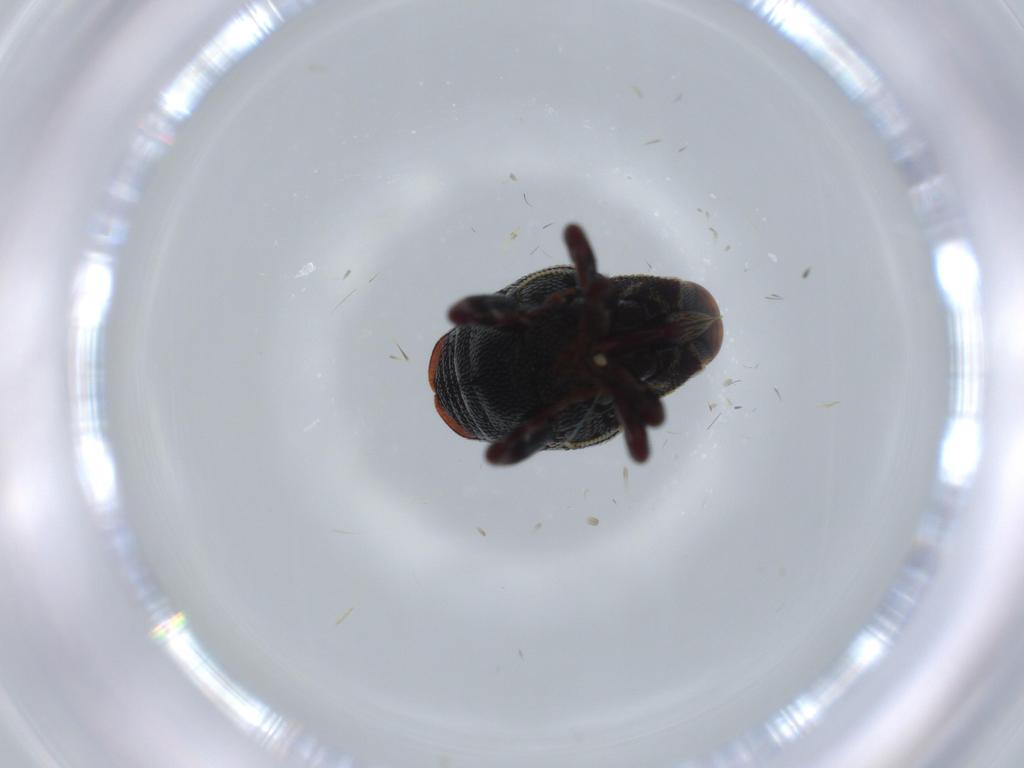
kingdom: Animalia
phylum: Arthropoda
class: Insecta
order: Coleoptera
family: Curculionidae
